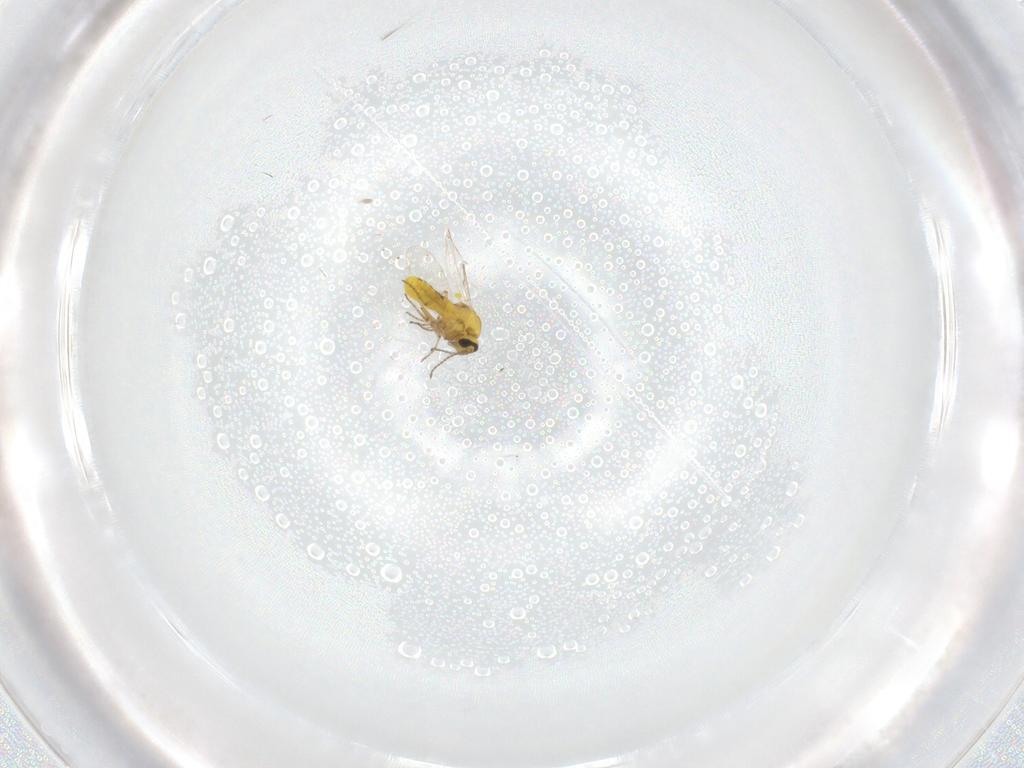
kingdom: Animalia
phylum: Arthropoda
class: Insecta
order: Diptera
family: Ceratopogonidae
